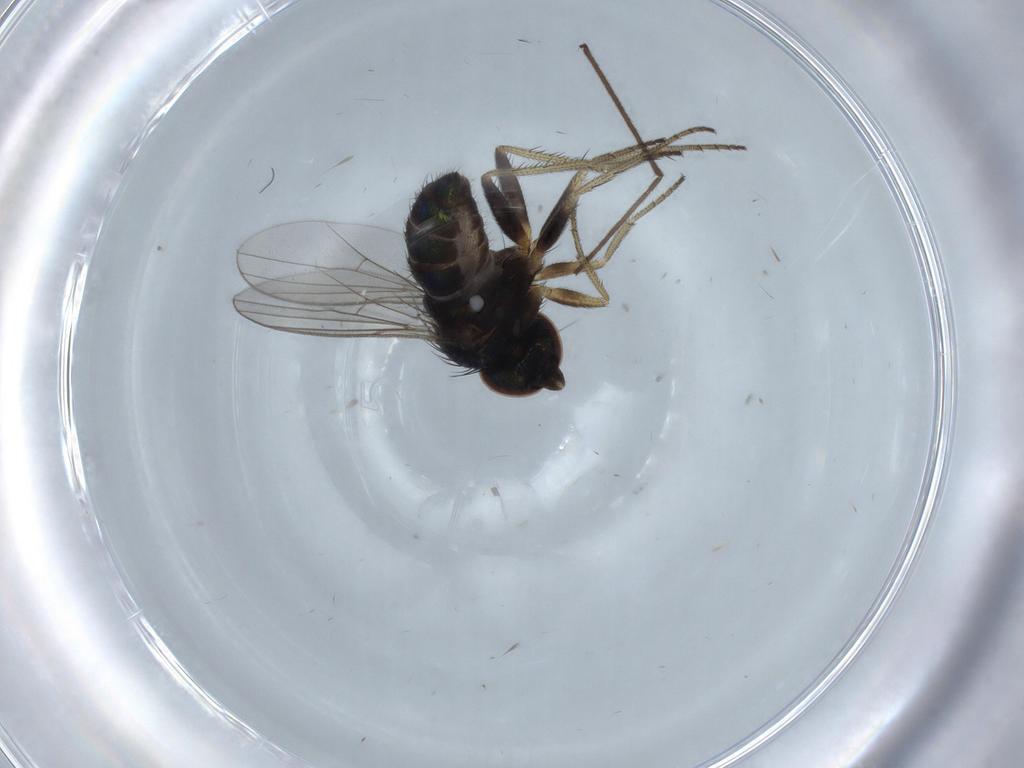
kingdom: Animalia
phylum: Arthropoda
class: Insecta
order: Diptera
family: Chironomidae
